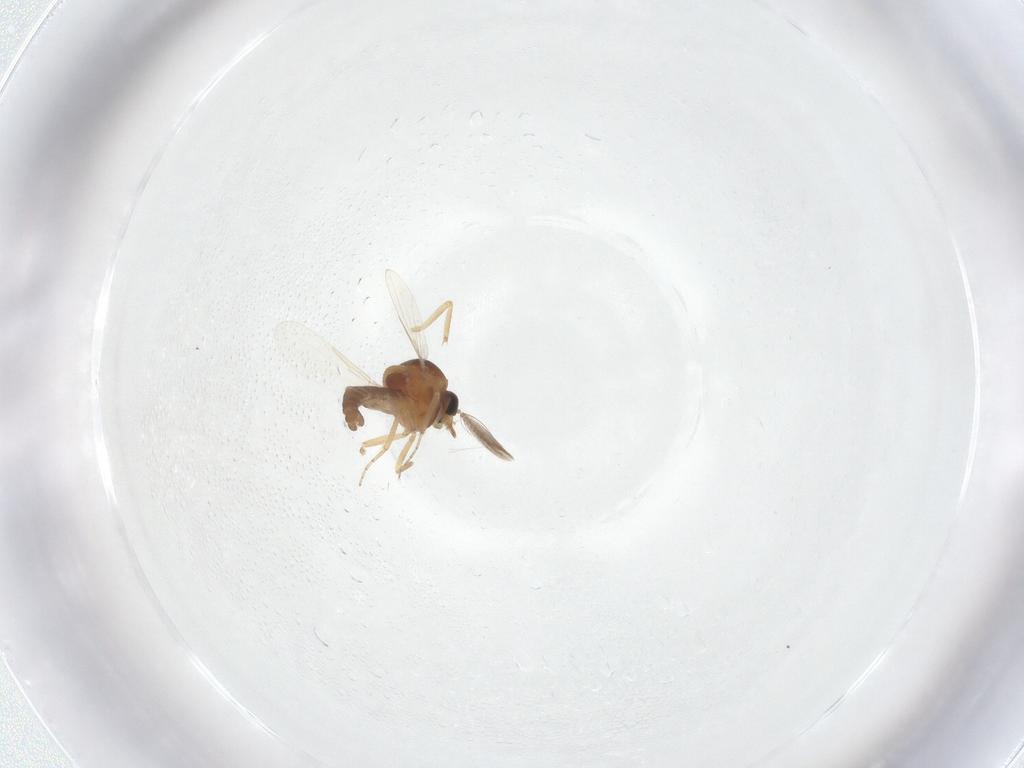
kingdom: Animalia
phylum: Arthropoda
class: Insecta
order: Diptera
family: Ceratopogonidae
